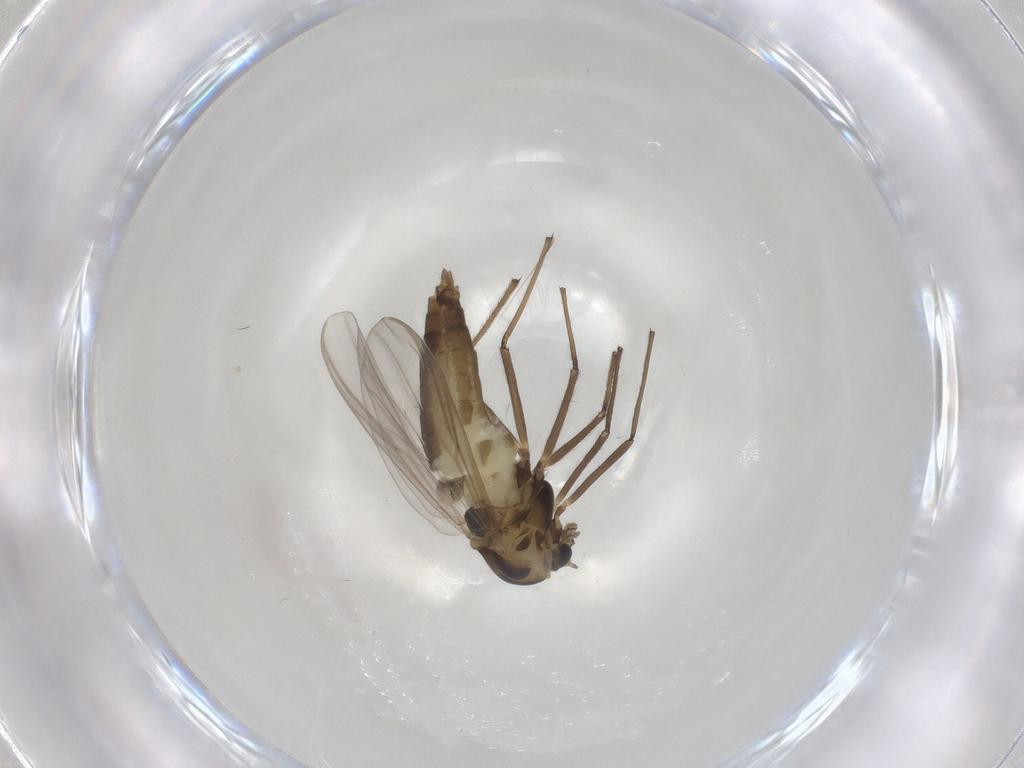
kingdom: Animalia
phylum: Arthropoda
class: Insecta
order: Diptera
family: Chironomidae
